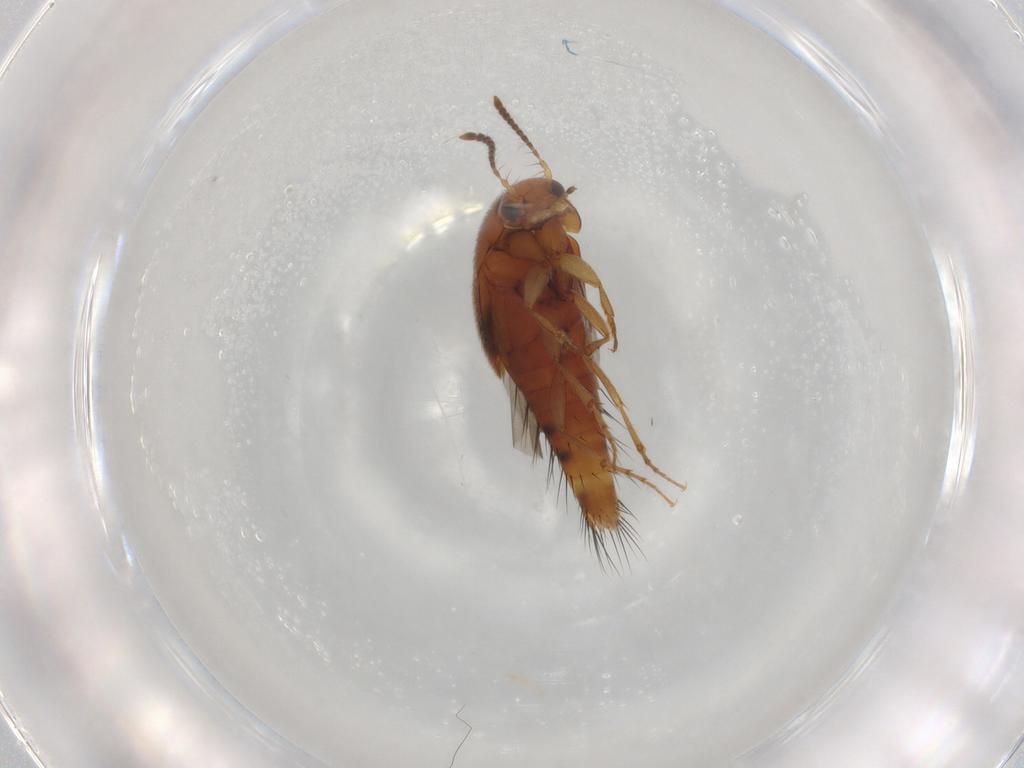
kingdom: Animalia
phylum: Arthropoda
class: Insecta
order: Coleoptera
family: Staphylinidae
